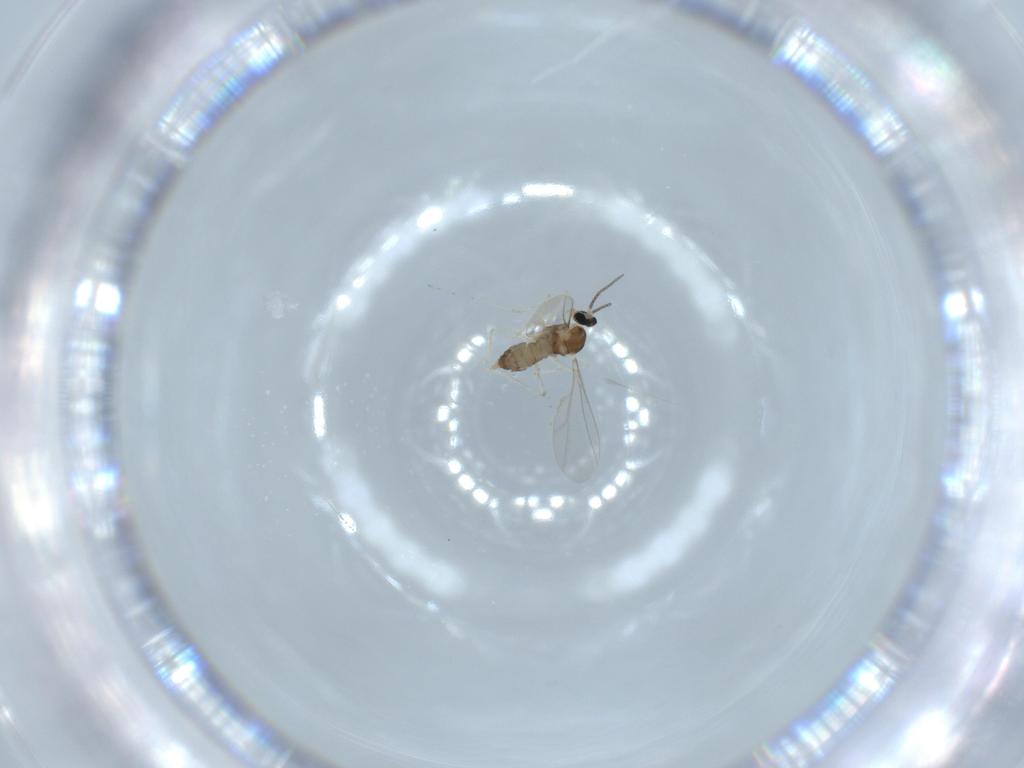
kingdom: Animalia
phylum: Arthropoda
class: Insecta
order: Diptera
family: Cecidomyiidae
